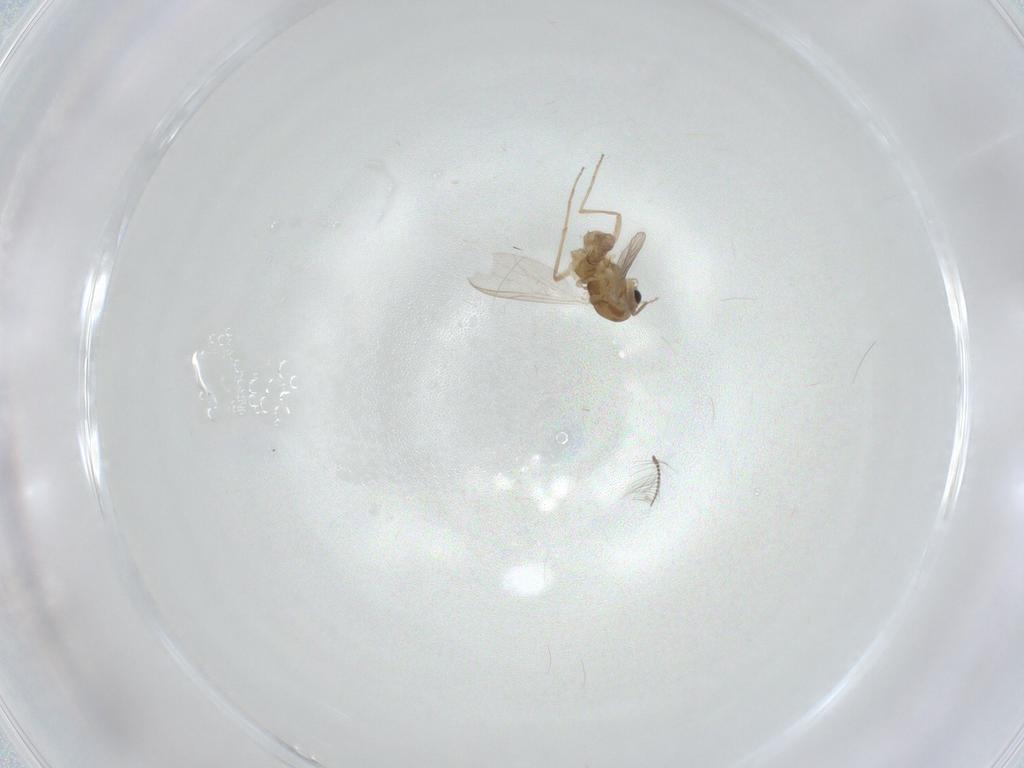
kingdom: Animalia
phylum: Arthropoda
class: Insecta
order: Diptera
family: Chironomidae
